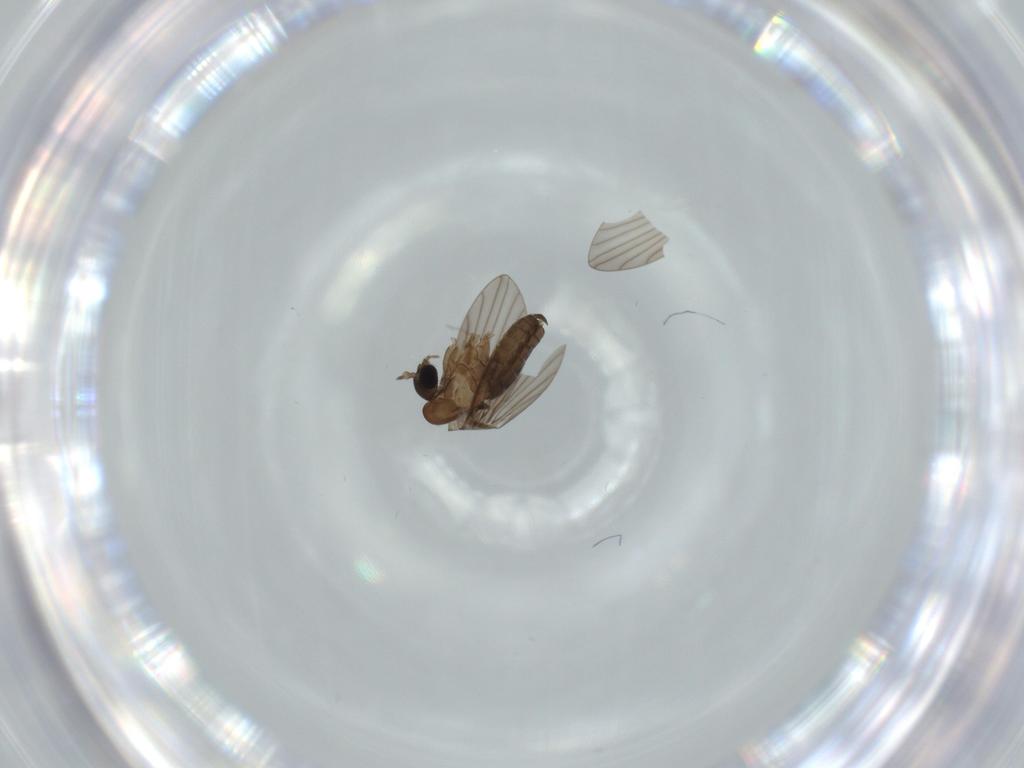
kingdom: Animalia
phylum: Arthropoda
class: Insecta
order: Diptera
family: Psychodidae
